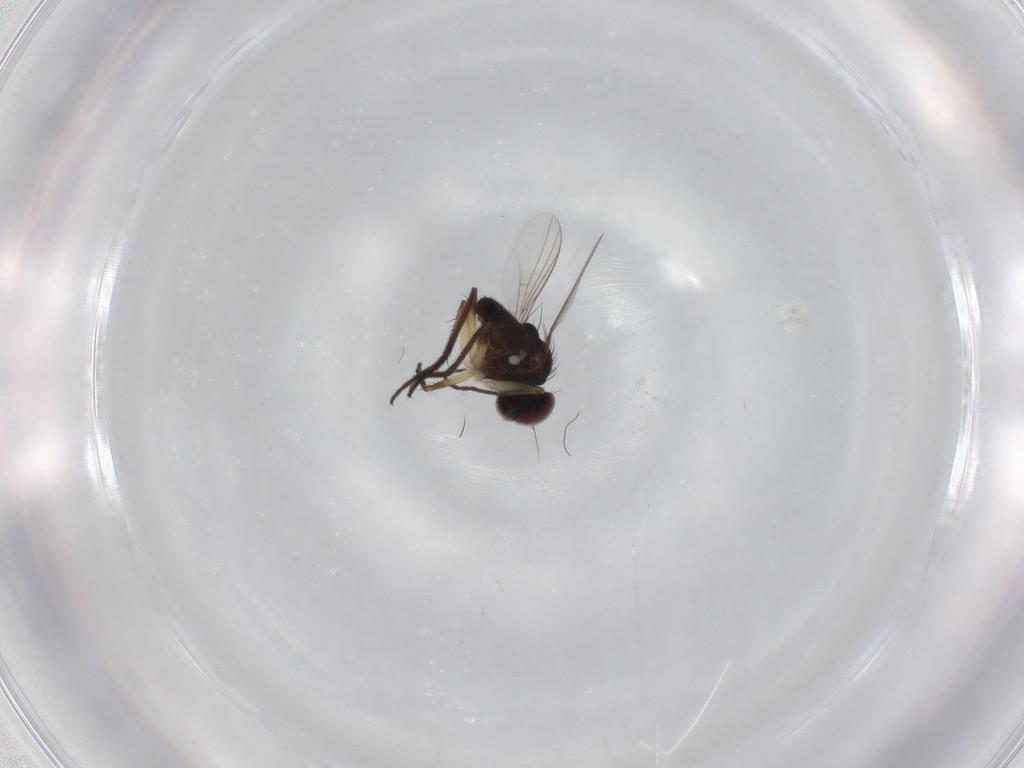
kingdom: Animalia
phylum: Arthropoda
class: Insecta
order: Diptera
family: Dolichopodidae
